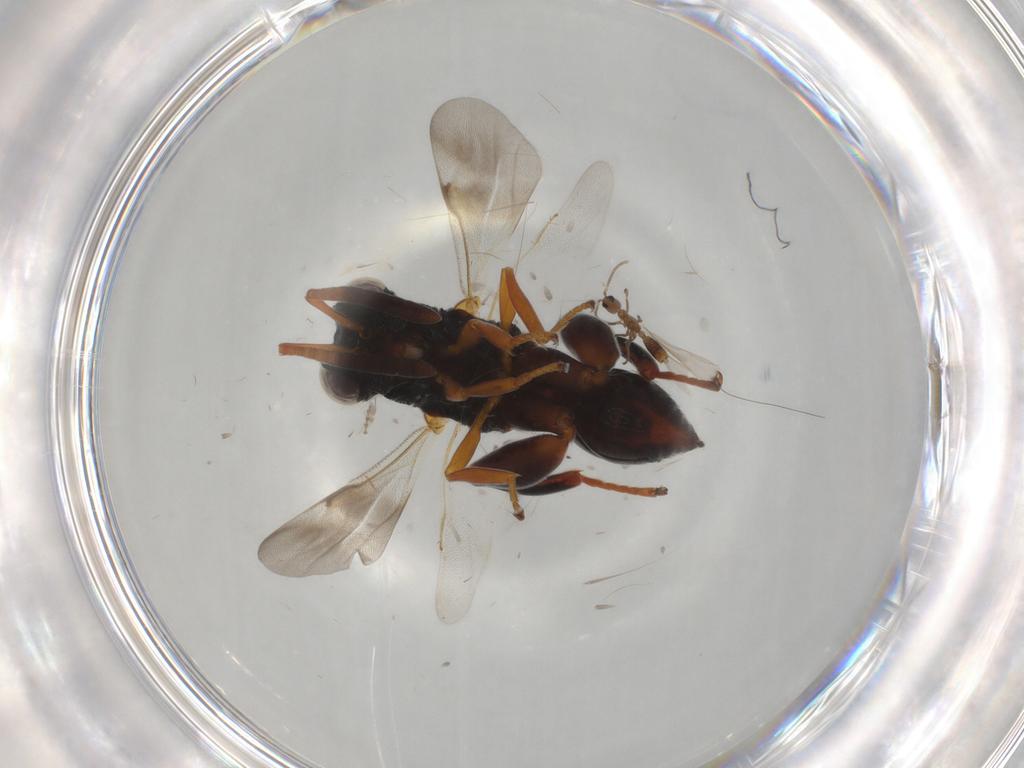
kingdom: Animalia
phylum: Arthropoda
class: Insecta
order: Hymenoptera
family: Formicidae
